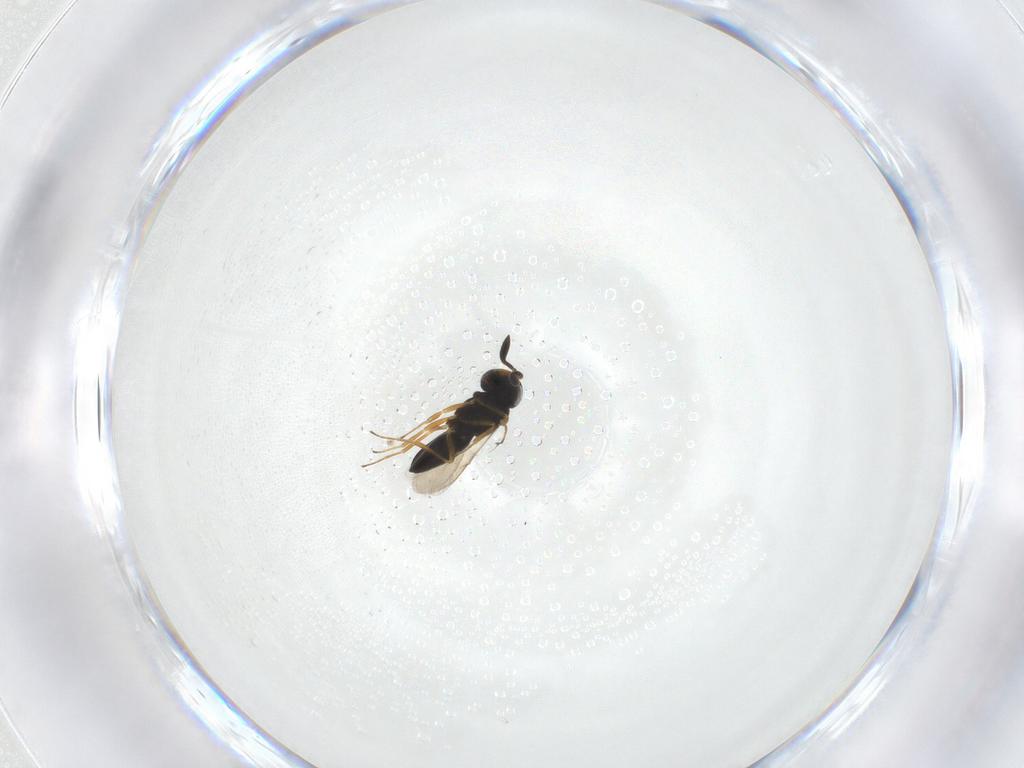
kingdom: Animalia
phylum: Arthropoda
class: Insecta
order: Hymenoptera
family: Scelionidae
